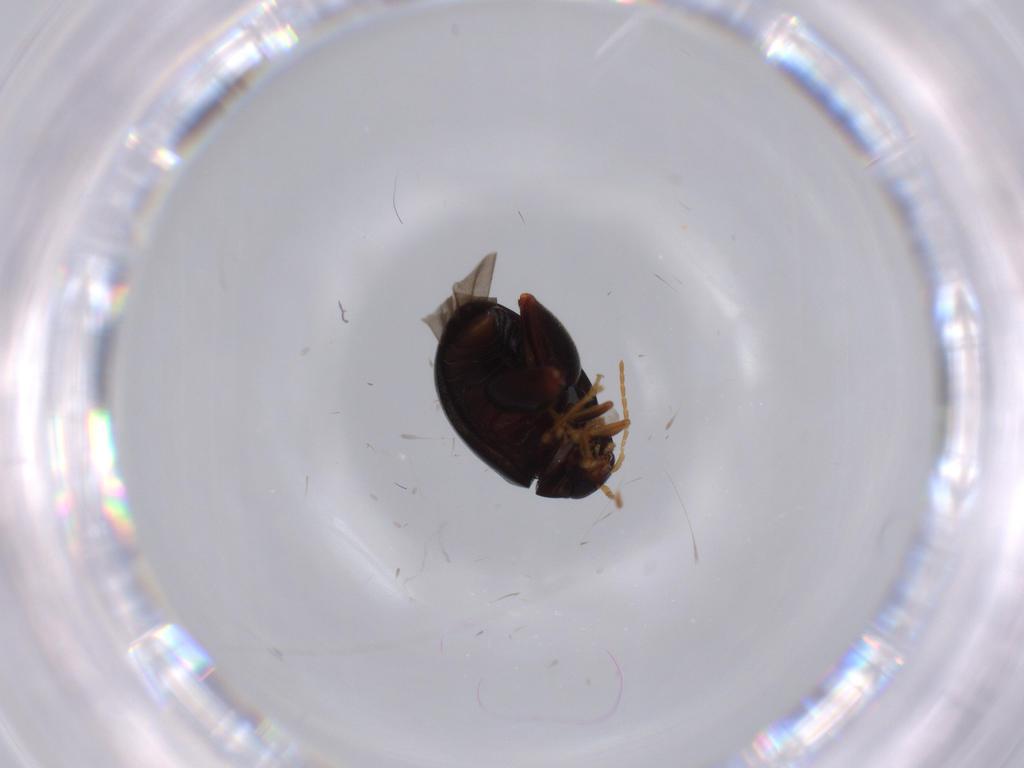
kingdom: Animalia
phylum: Arthropoda
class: Insecta
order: Coleoptera
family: Chrysomelidae
